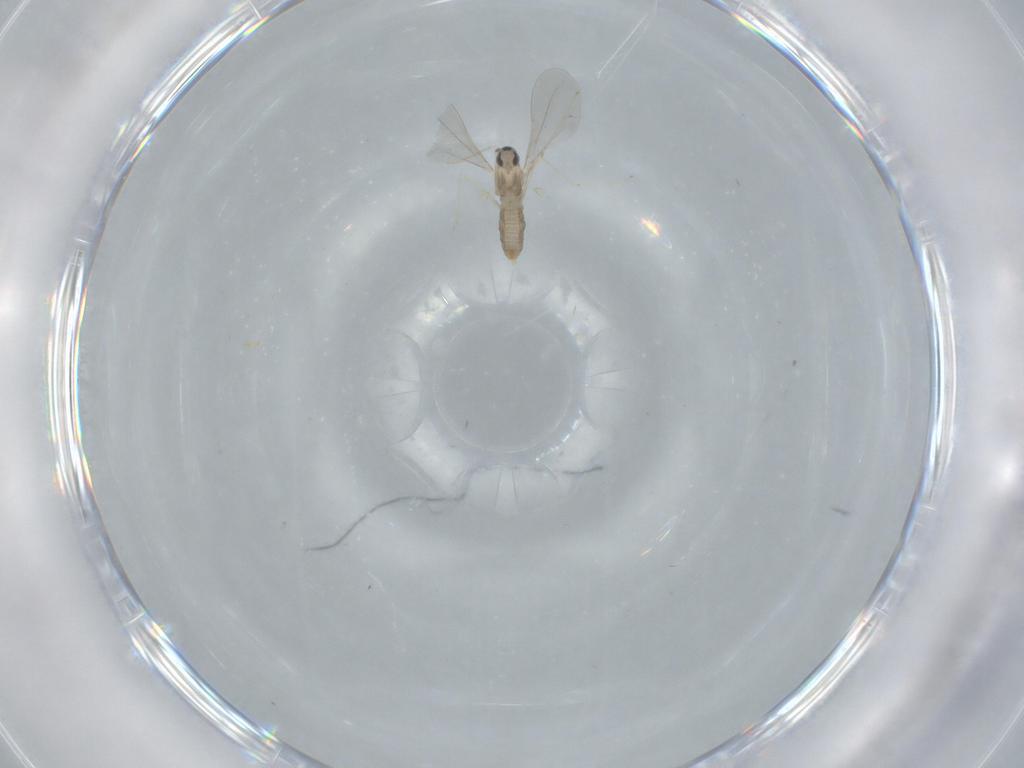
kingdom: Animalia
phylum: Arthropoda
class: Insecta
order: Diptera
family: Cecidomyiidae
